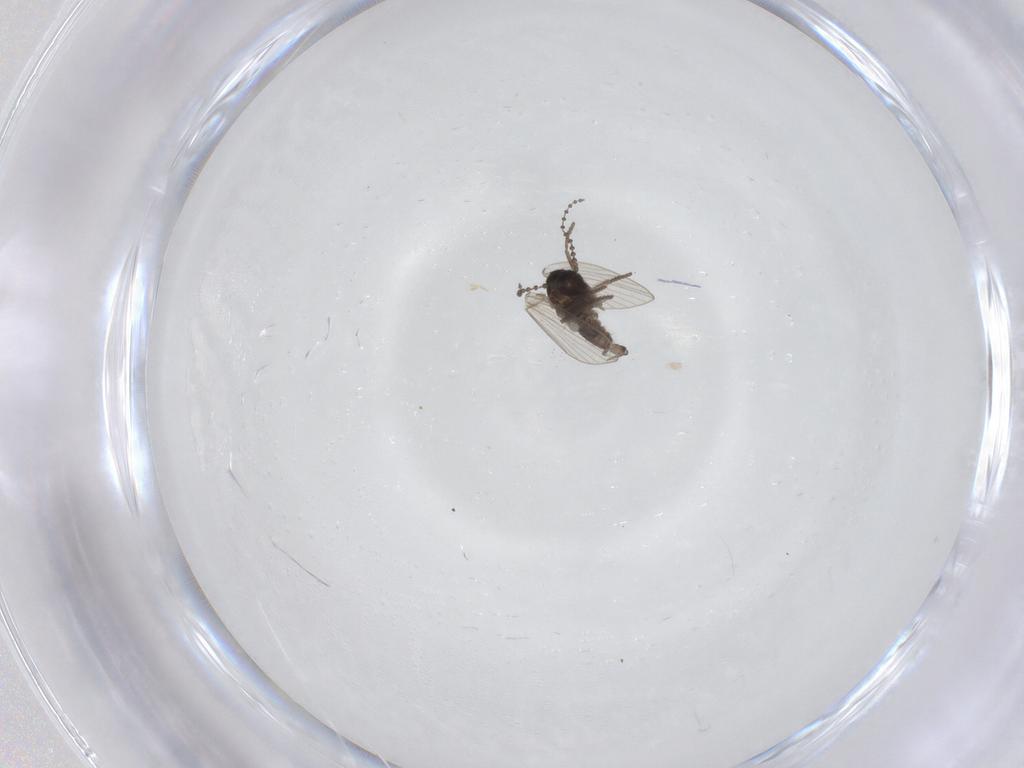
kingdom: Animalia
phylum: Arthropoda
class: Insecta
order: Diptera
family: Psychodidae
